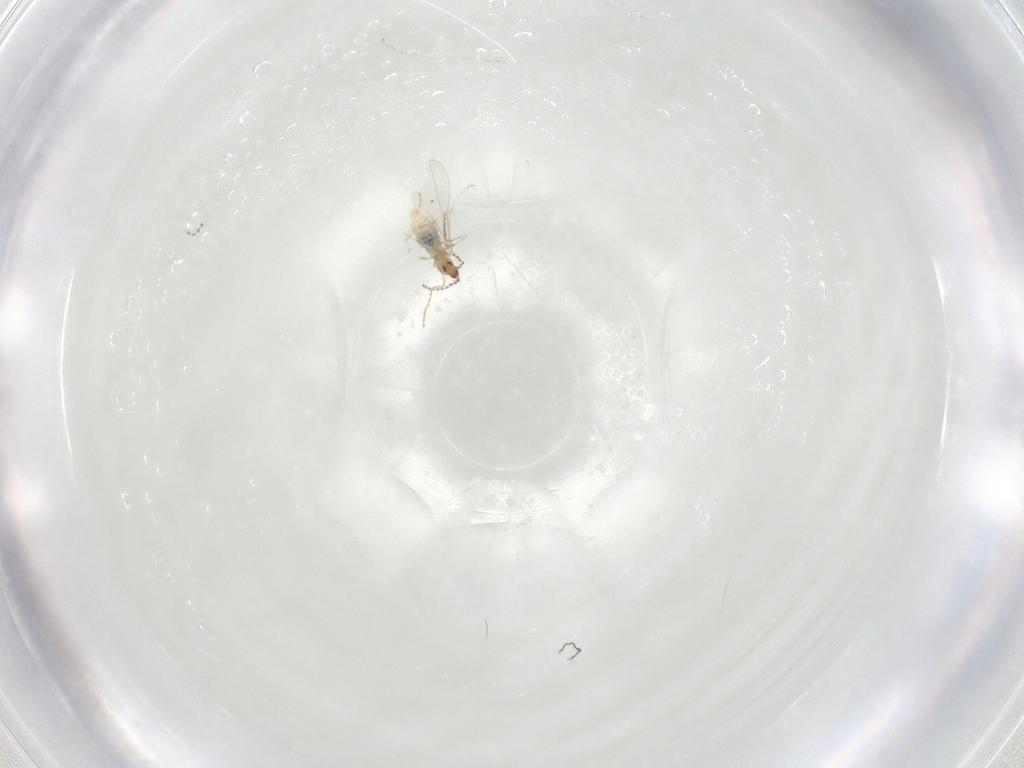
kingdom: Animalia
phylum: Arthropoda
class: Insecta
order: Diptera
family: Cecidomyiidae
